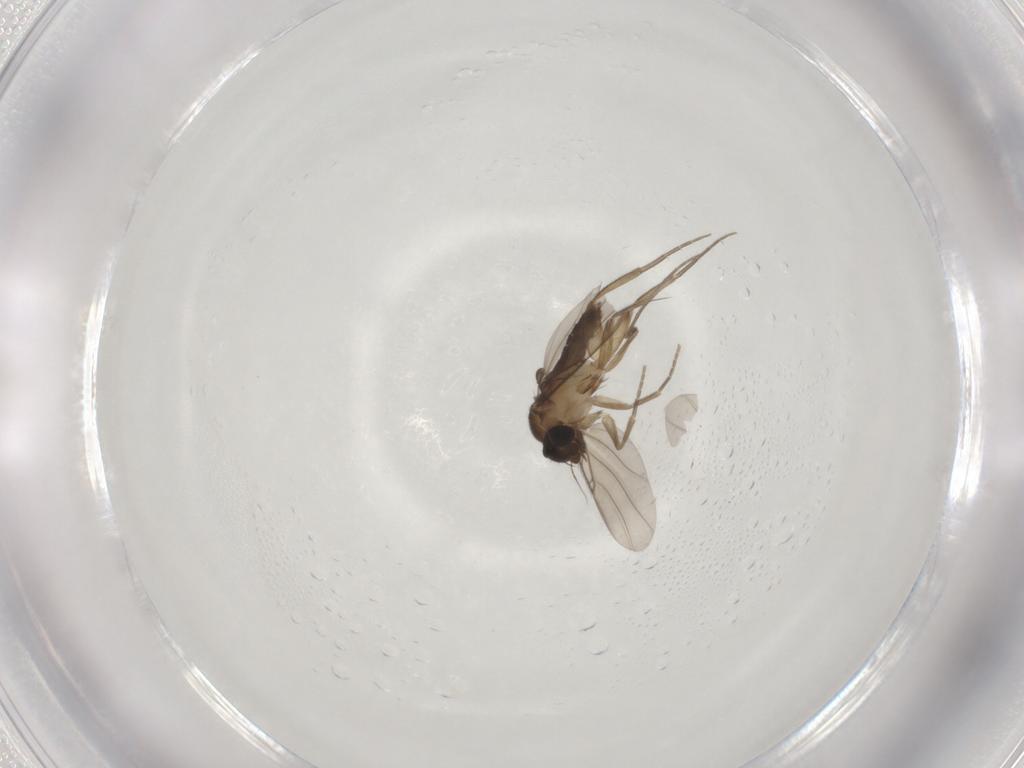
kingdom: Animalia
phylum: Arthropoda
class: Insecta
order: Diptera
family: Phoridae
